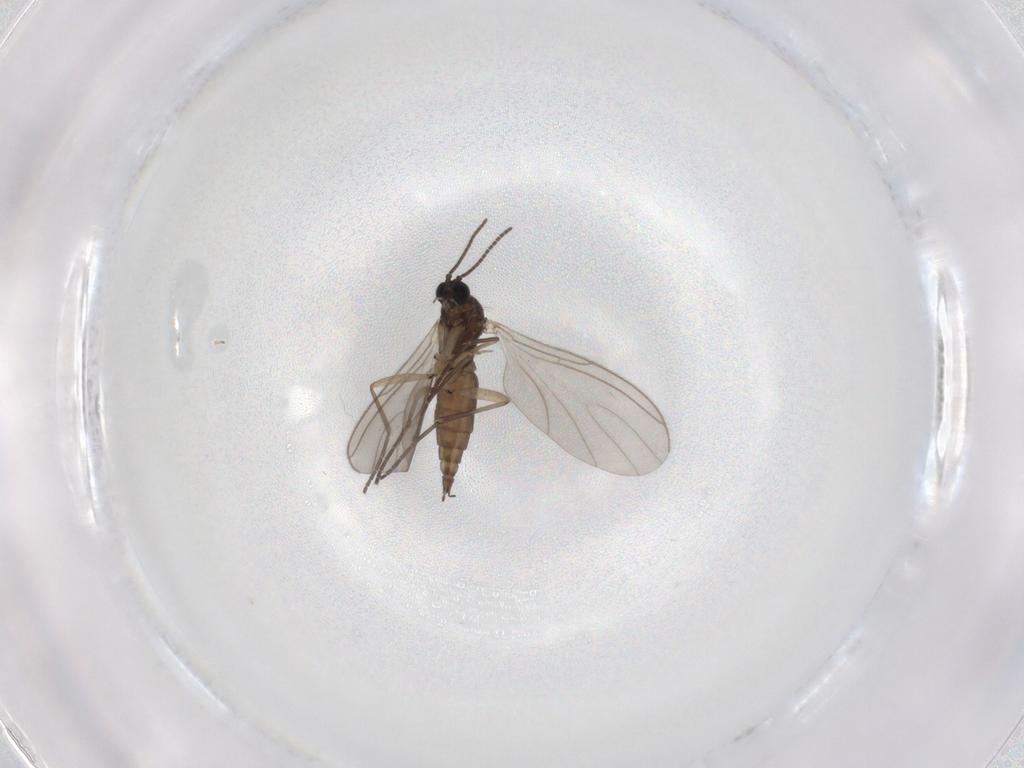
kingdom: Animalia
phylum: Arthropoda
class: Insecta
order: Diptera
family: Sciaridae
